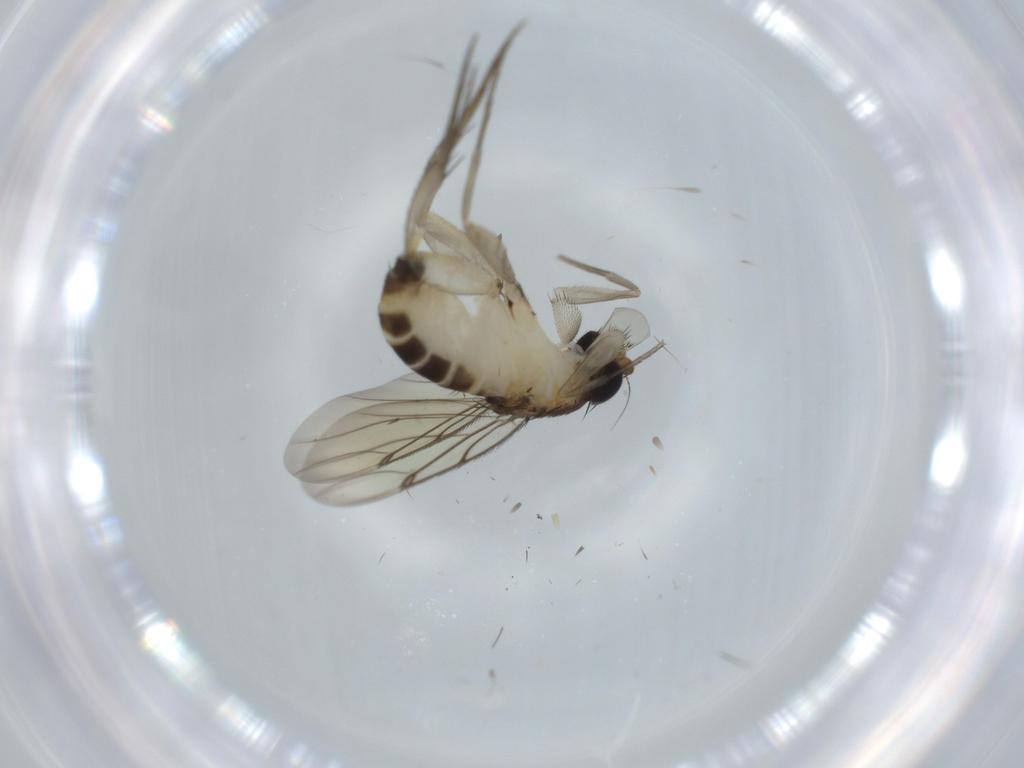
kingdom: Animalia
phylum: Arthropoda
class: Insecta
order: Diptera
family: Phoridae
